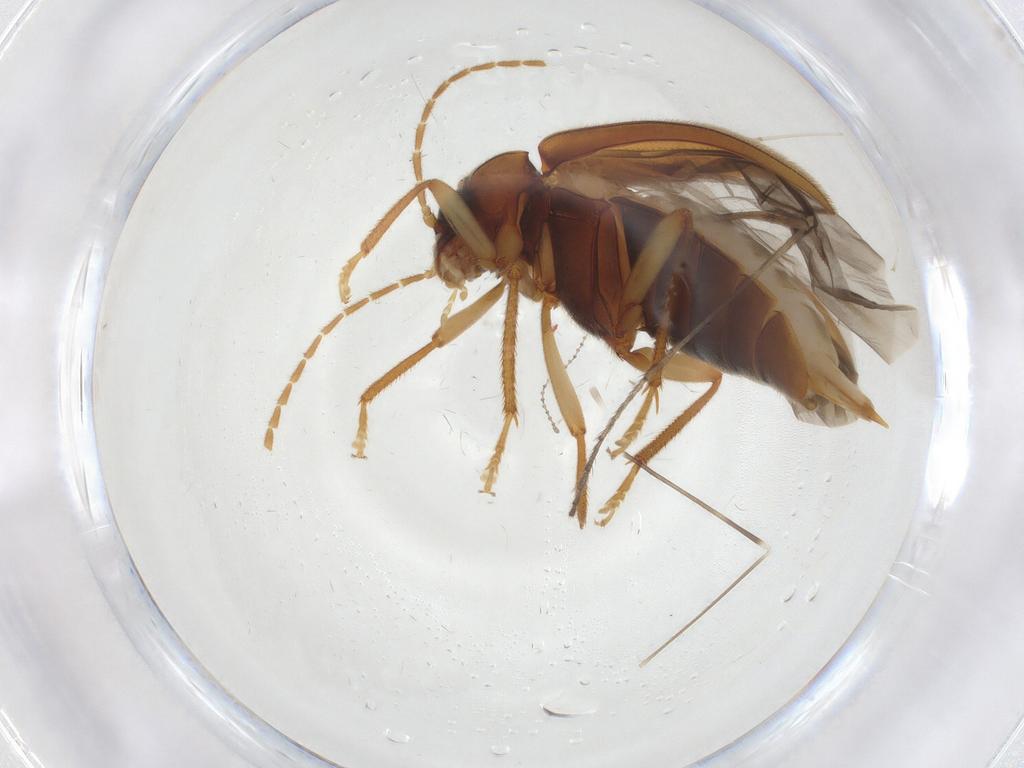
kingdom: Animalia
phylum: Arthropoda
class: Insecta
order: Coleoptera
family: Ptilodactylidae
